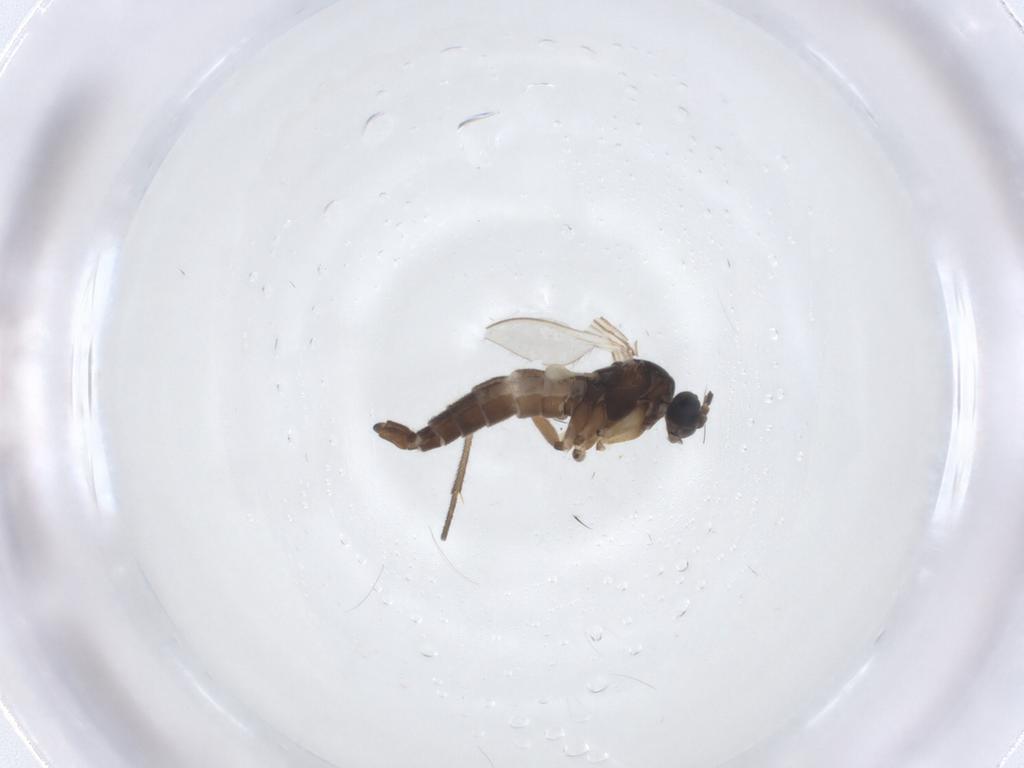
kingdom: Animalia
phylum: Arthropoda
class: Insecta
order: Diptera
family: Sciaridae
